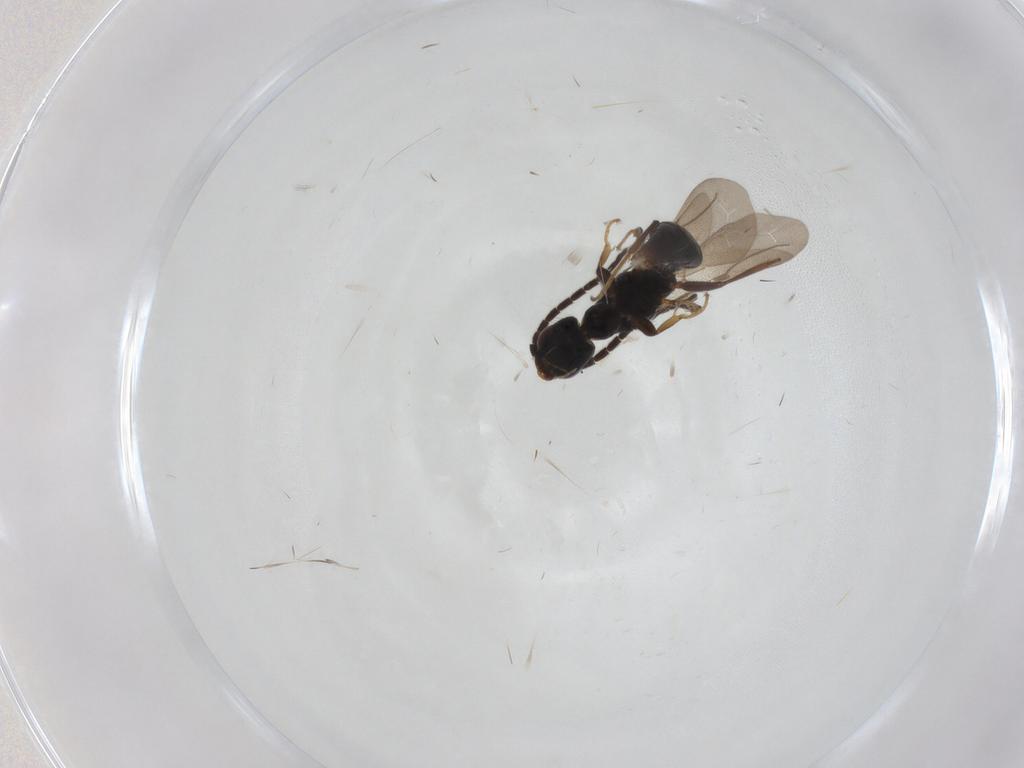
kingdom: Animalia
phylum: Arthropoda
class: Insecta
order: Hymenoptera
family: Bethylidae
